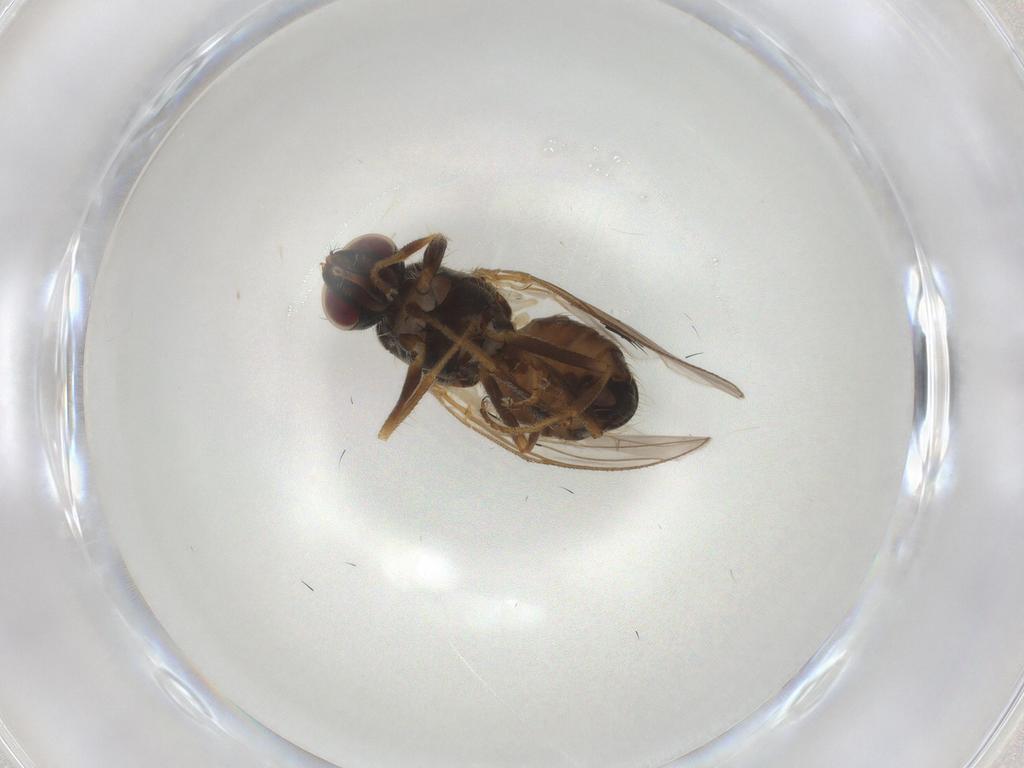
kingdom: Animalia
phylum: Arthropoda
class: Insecta
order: Diptera
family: Muscidae
